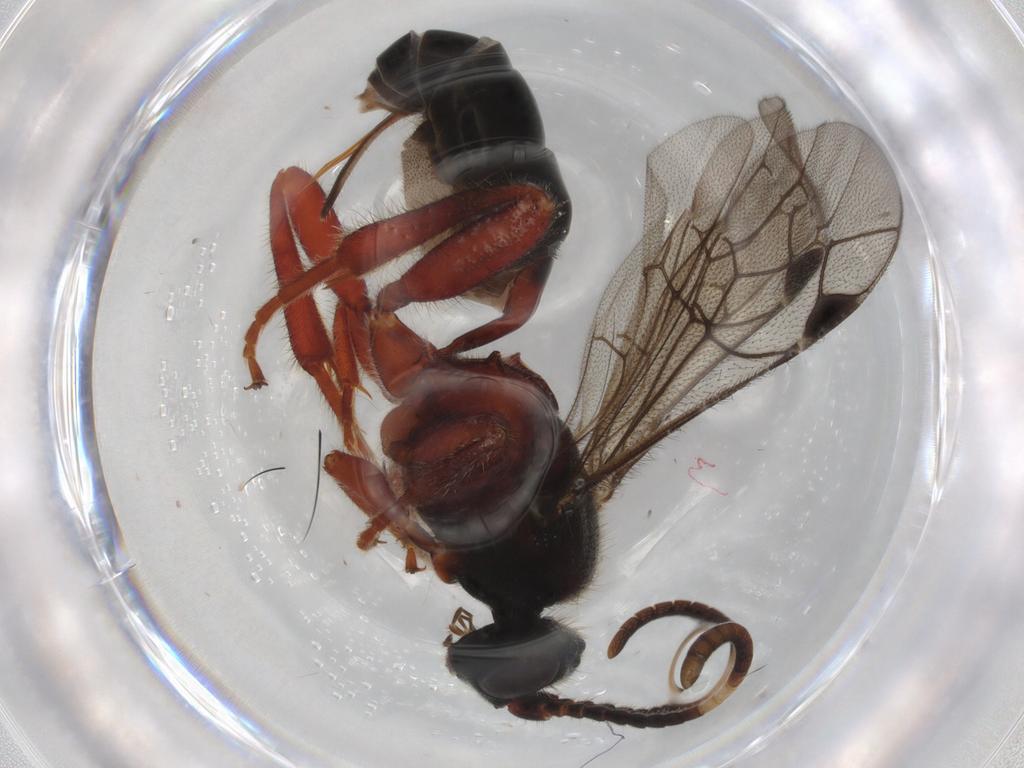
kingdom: Animalia
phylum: Arthropoda
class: Insecta
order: Hymenoptera
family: Ichneumonidae
